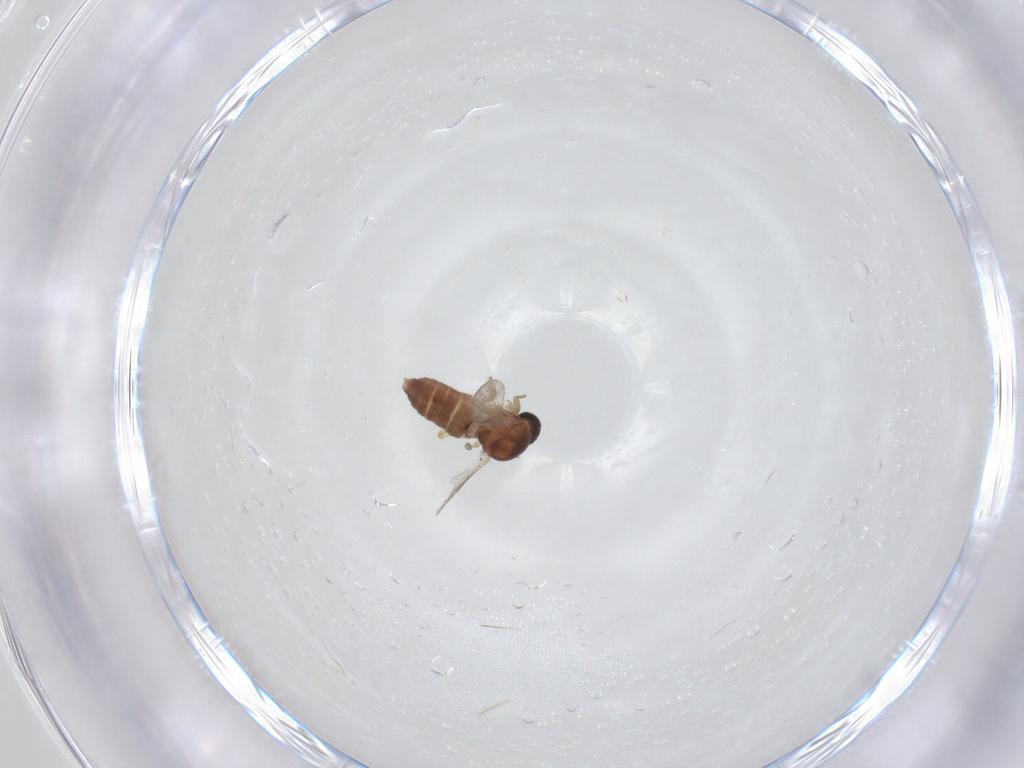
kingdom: Animalia
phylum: Arthropoda
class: Insecta
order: Diptera
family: Ceratopogonidae
